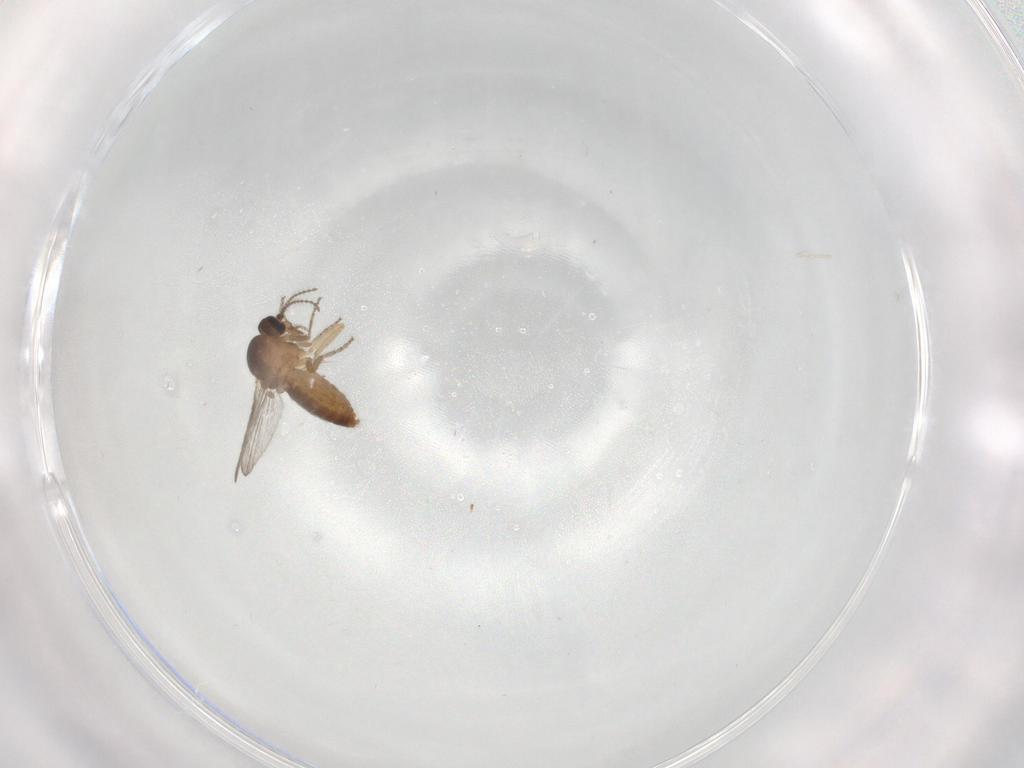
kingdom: Animalia
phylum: Arthropoda
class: Insecta
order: Diptera
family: Ceratopogonidae
